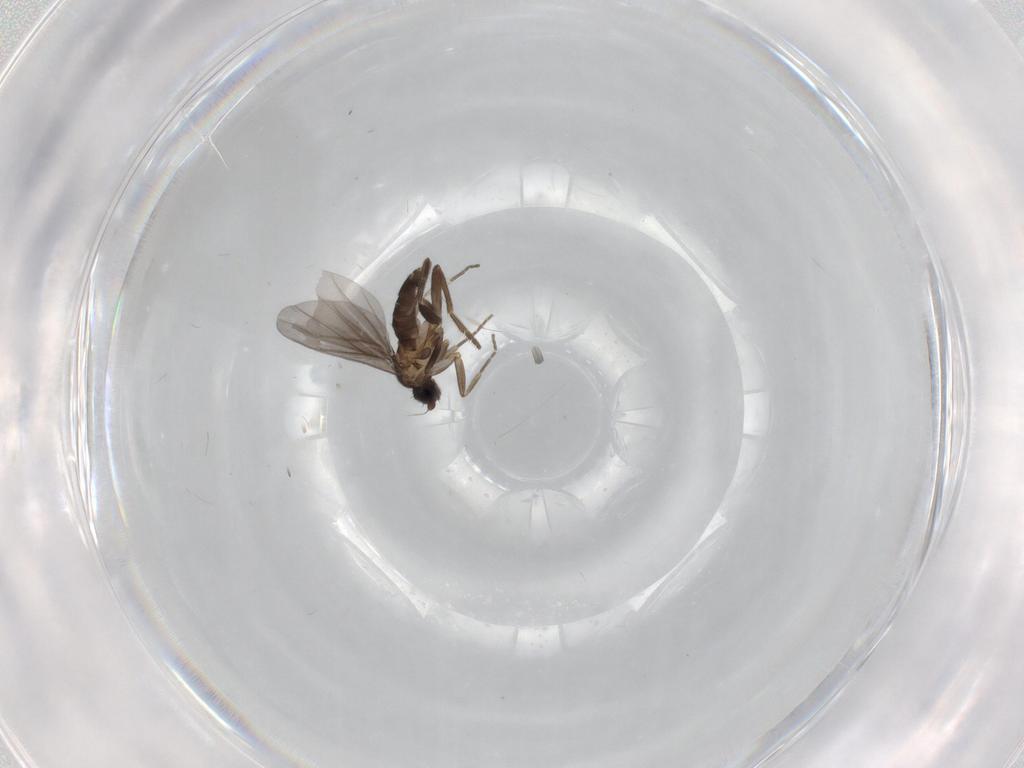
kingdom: Animalia
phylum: Arthropoda
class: Insecta
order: Diptera
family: Phoridae
